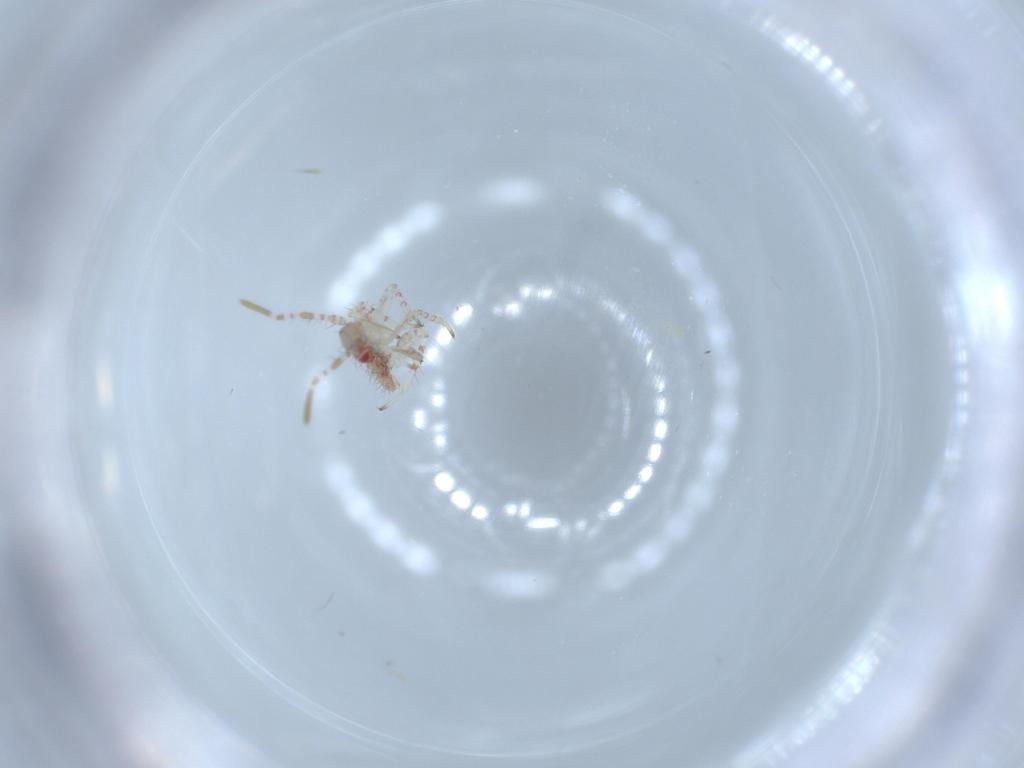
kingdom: Animalia
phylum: Arthropoda
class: Insecta
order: Hemiptera
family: Miridae
